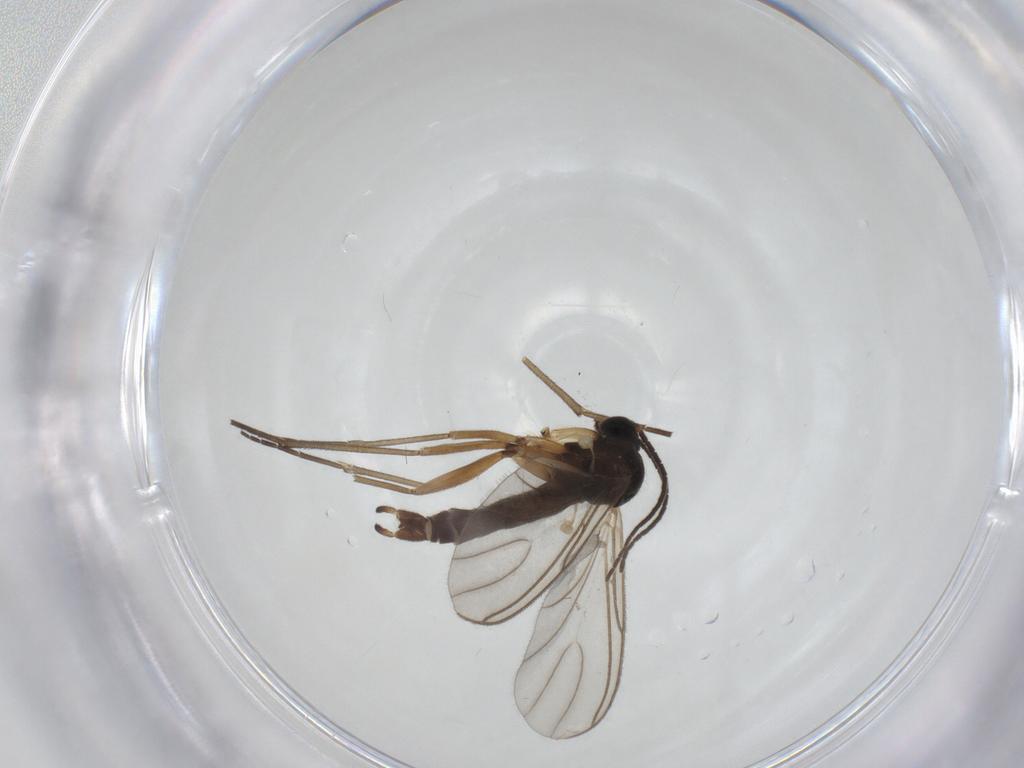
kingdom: Animalia
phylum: Arthropoda
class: Insecta
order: Diptera
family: Sciaridae
